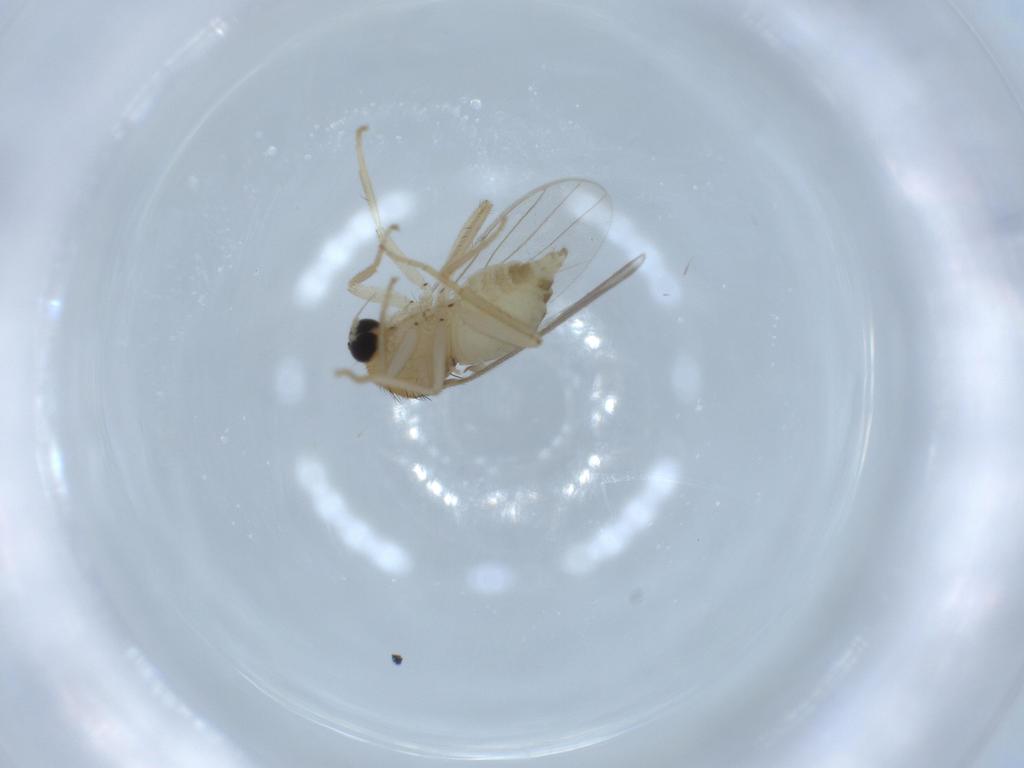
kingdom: Animalia
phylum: Arthropoda
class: Insecta
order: Diptera
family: Hybotidae
